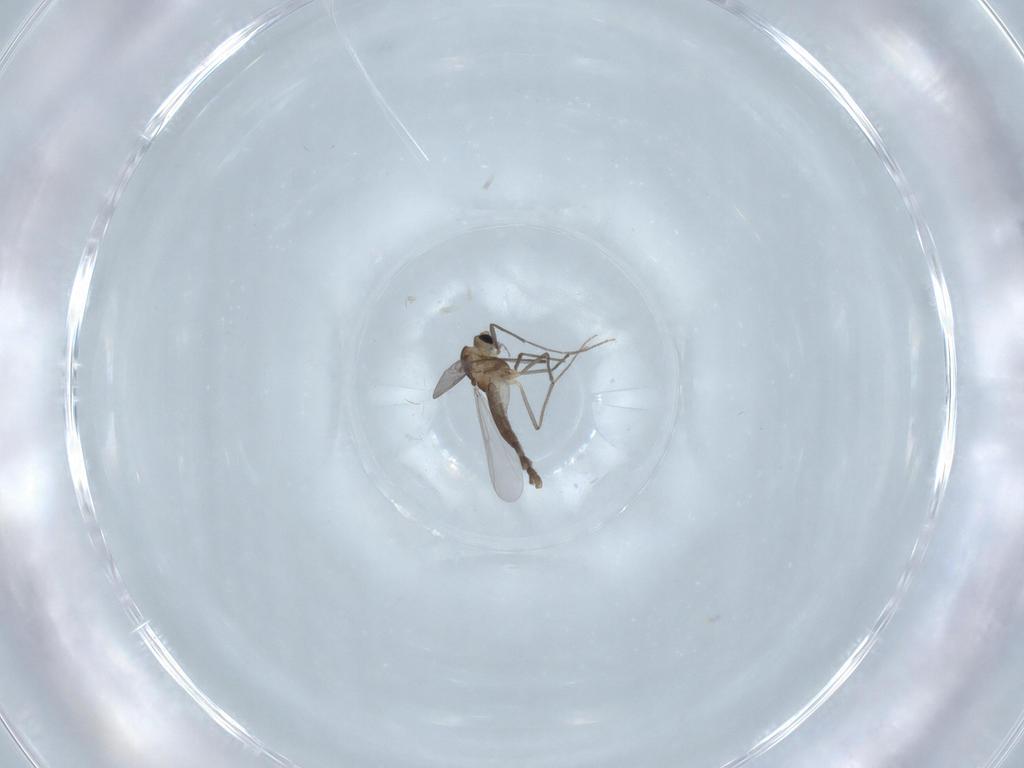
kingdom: Animalia
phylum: Arthropoda
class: Insecta
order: Diptera
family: Chironomidae
